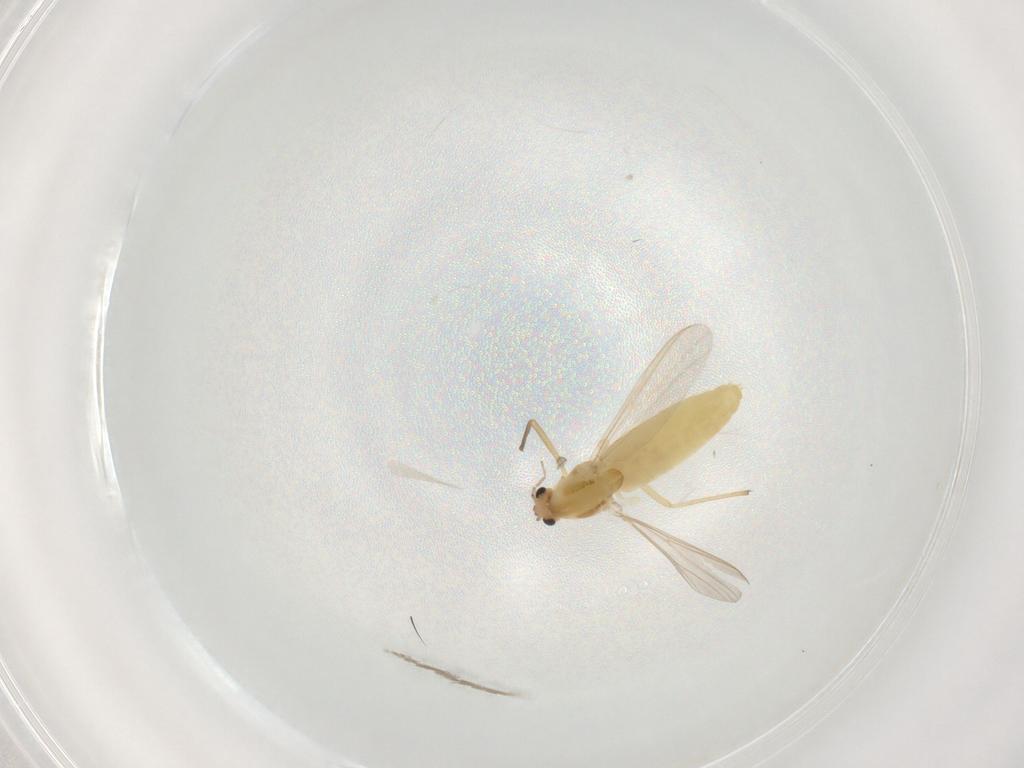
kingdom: Animalia
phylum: Arthropoda
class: Insecta
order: Diptera
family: Chironomidae
